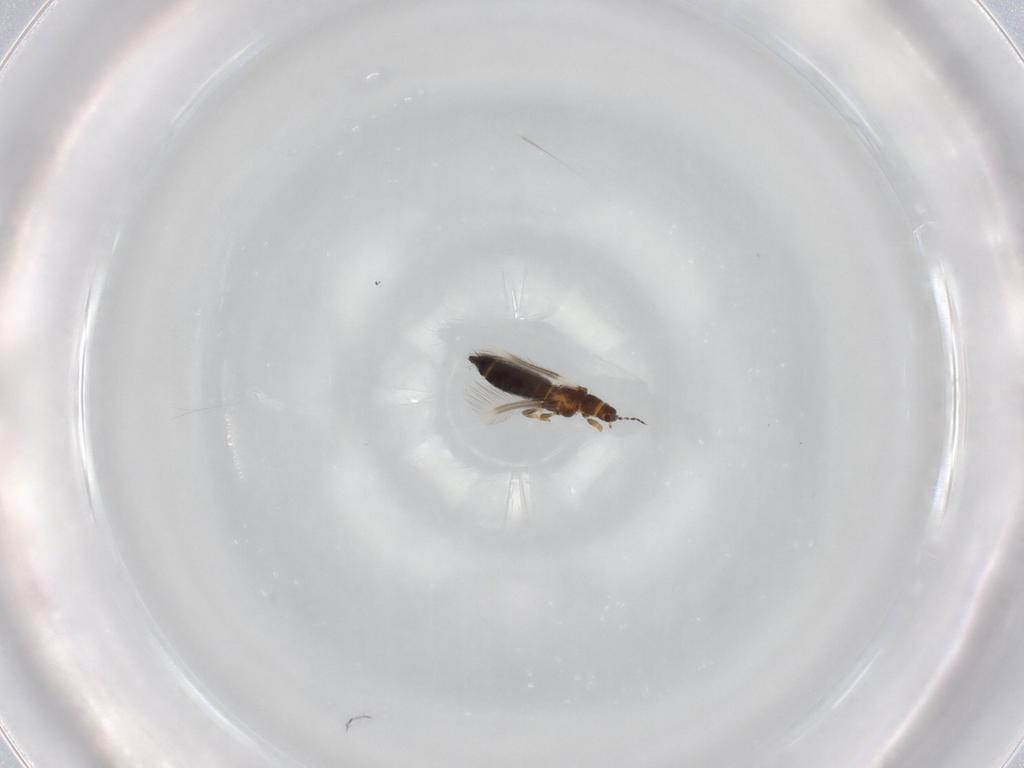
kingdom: Animalia
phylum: Arthropoda
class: Insecta
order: Thysanoptera
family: Thripidae
